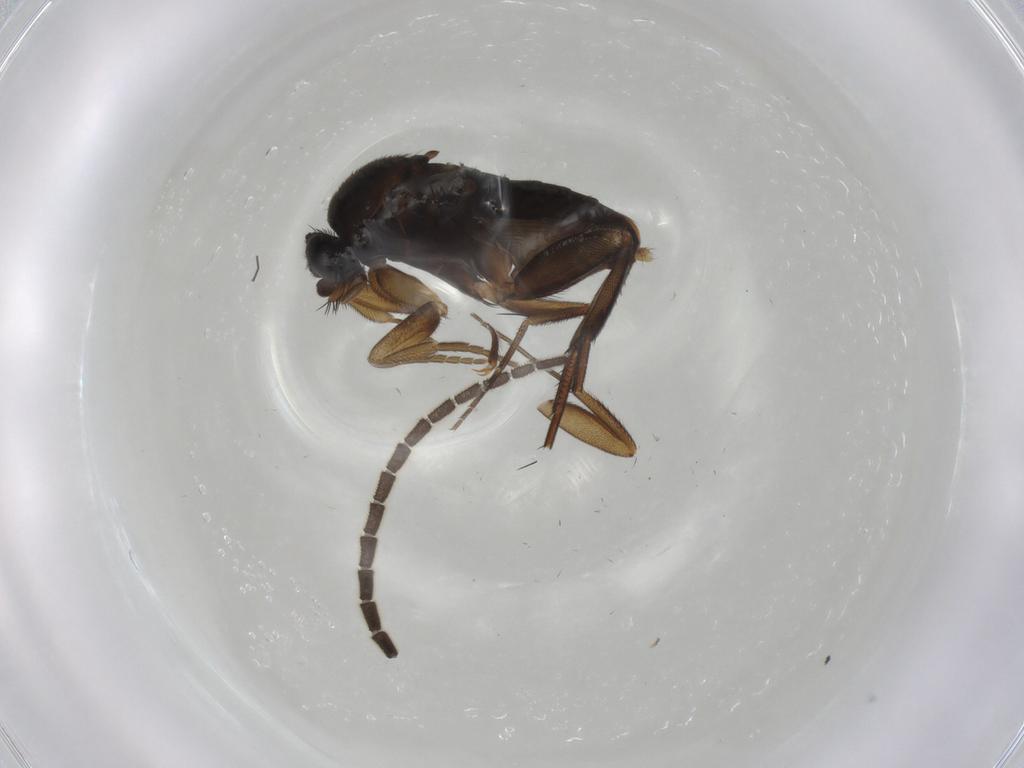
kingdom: Animalia
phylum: Arthropoda
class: Insecta
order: Diptera
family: Phoridae
